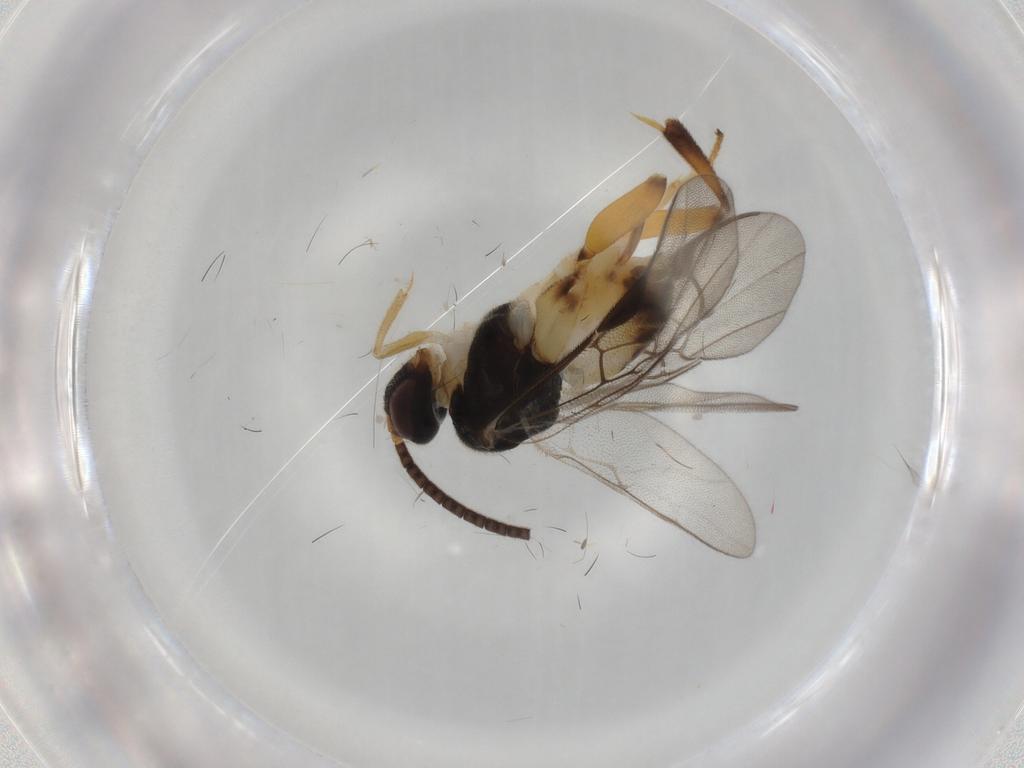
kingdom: Animalia
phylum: Arthropoda
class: Insecta
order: Hymenoptera
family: Braconidae
